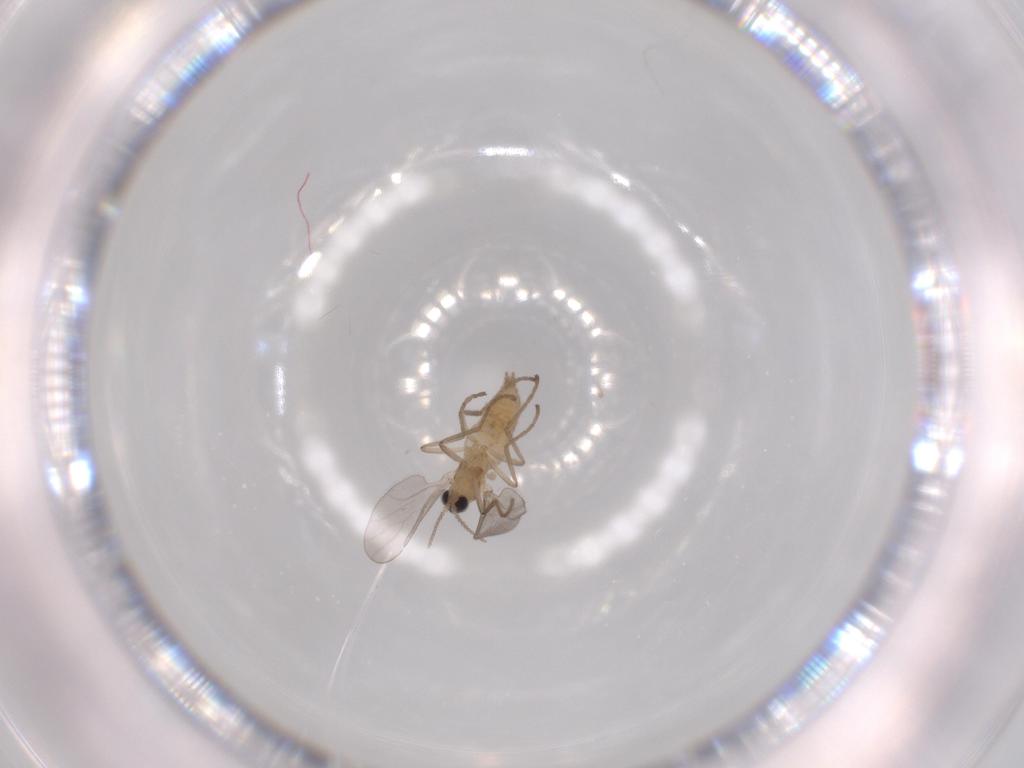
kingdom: Animalia
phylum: Arthropoda
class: Insecta
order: Diptera
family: Cecidomyiidae
